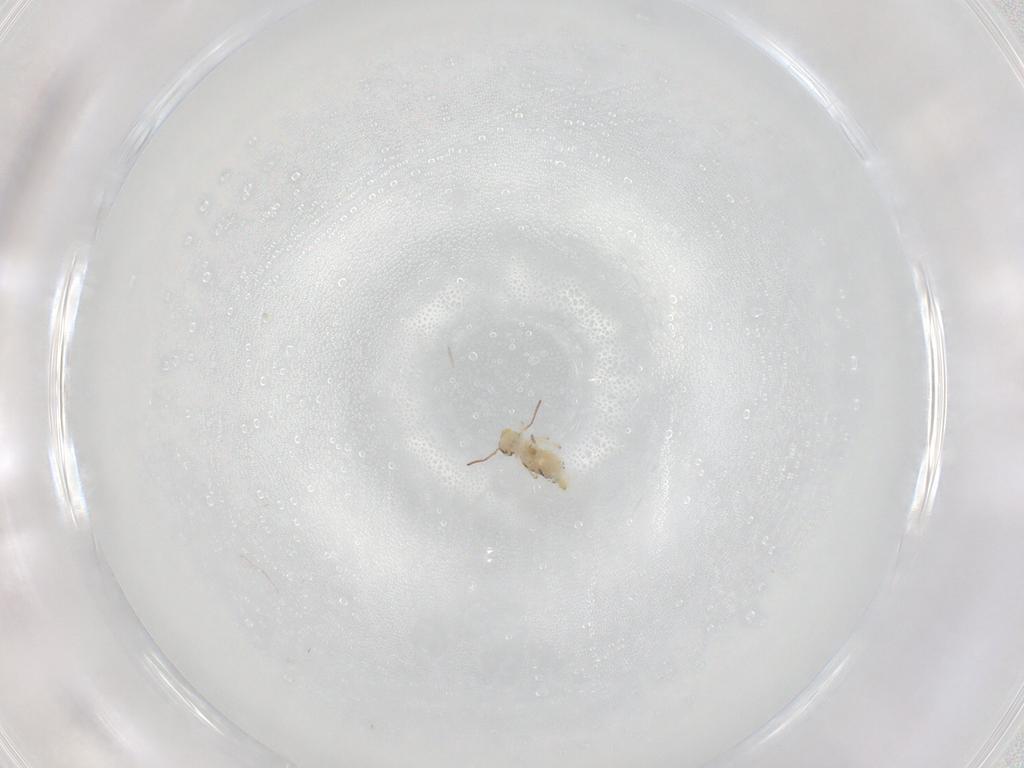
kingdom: Animalia
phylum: Arthropoda
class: Collembola
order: Symphypleona
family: Bourletiellidae
